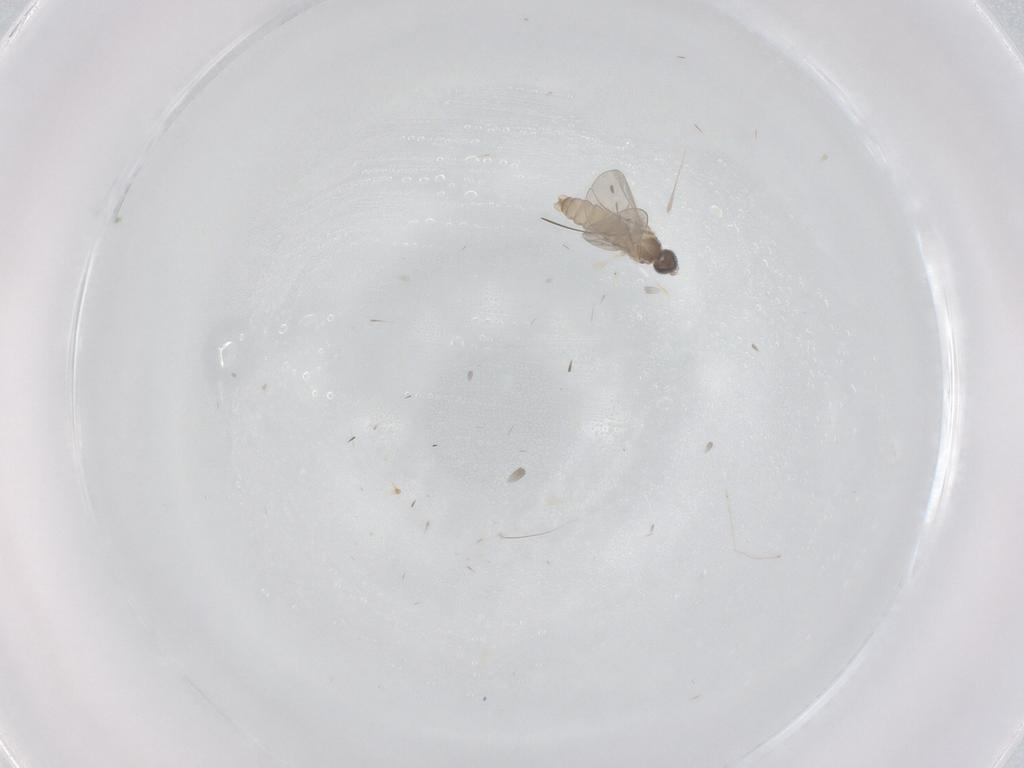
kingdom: Animalia
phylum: Arthropoda
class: Insecta
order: Diptera
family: Cecidomyiidae
